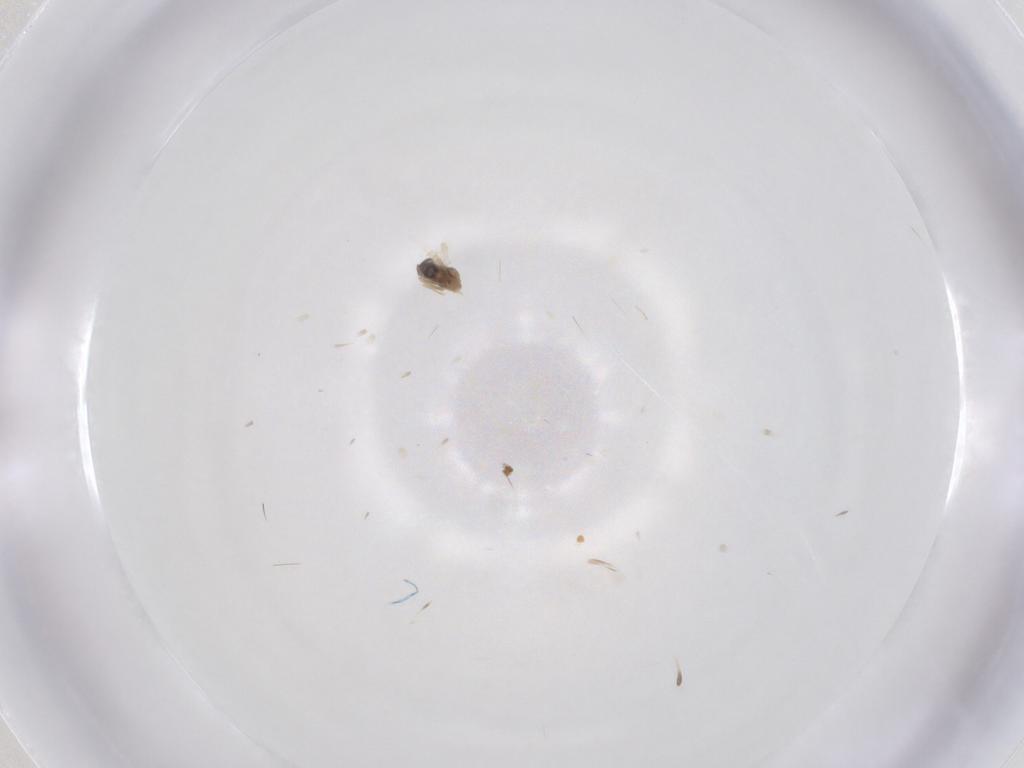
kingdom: Animalia
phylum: Arthropoda
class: Insecta
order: Diptera
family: Cecidomyiidae
